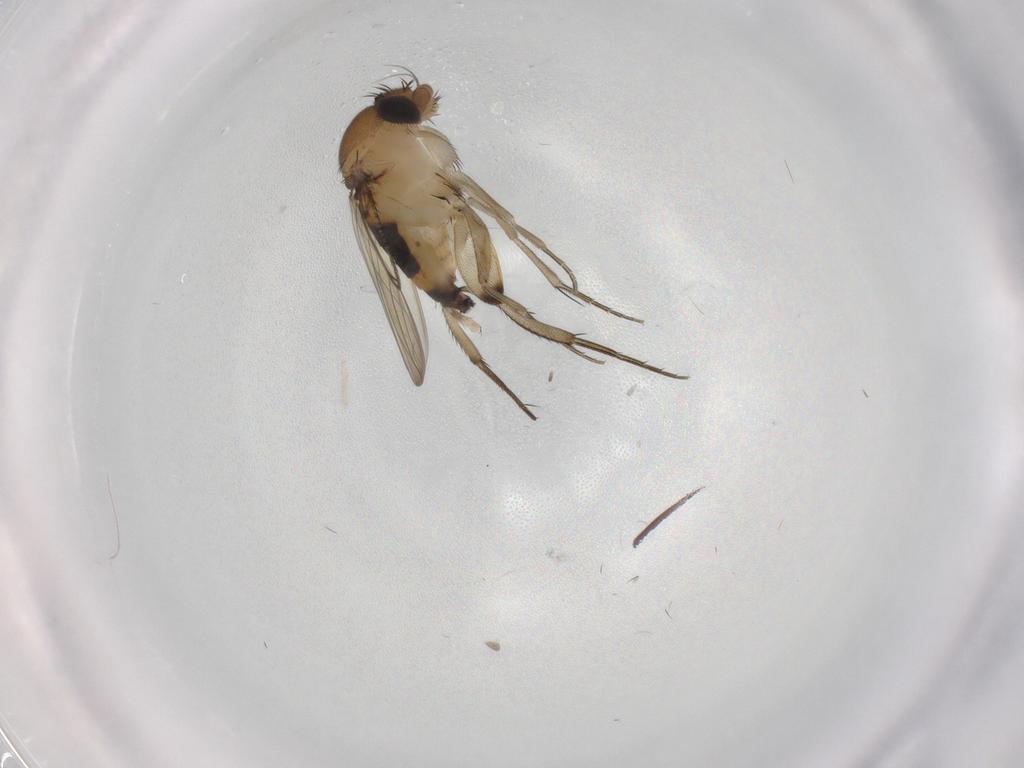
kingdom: Animalia
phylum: Arthropoda
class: Insecta
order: Diptera
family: Phoridae
